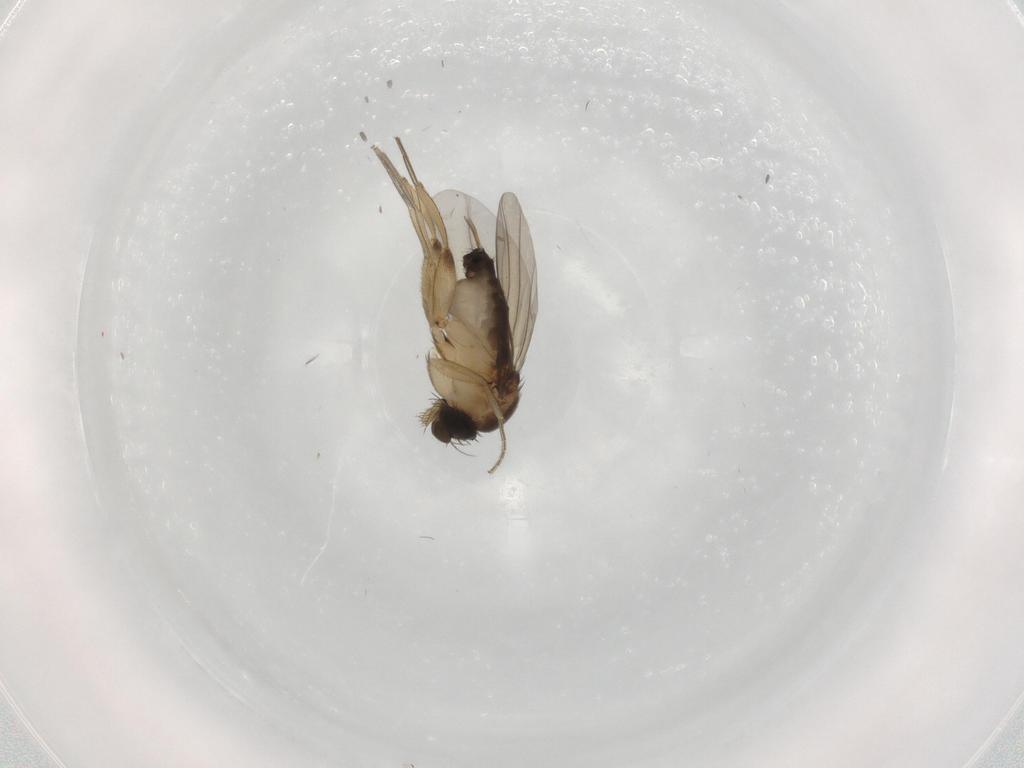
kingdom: Animalia
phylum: Arthropoda
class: Insecta
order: Diptera
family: Phoridae
